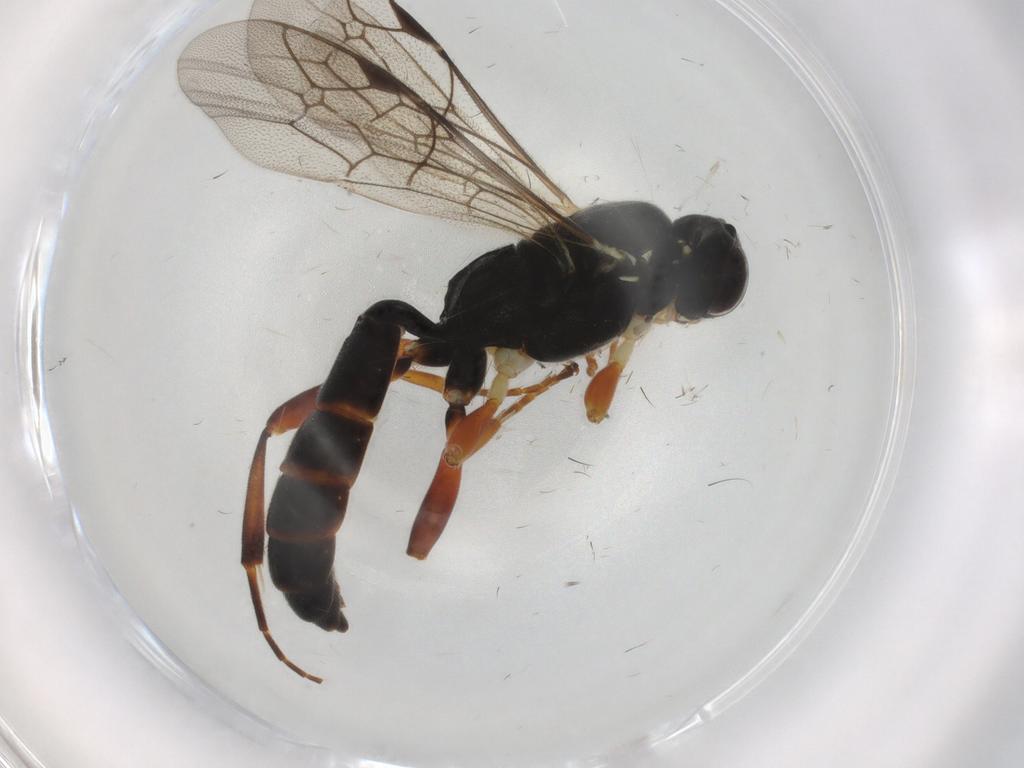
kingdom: Animalia
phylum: Arthropoda
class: Insecta
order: Hymenoptera
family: Ichneumonidae
